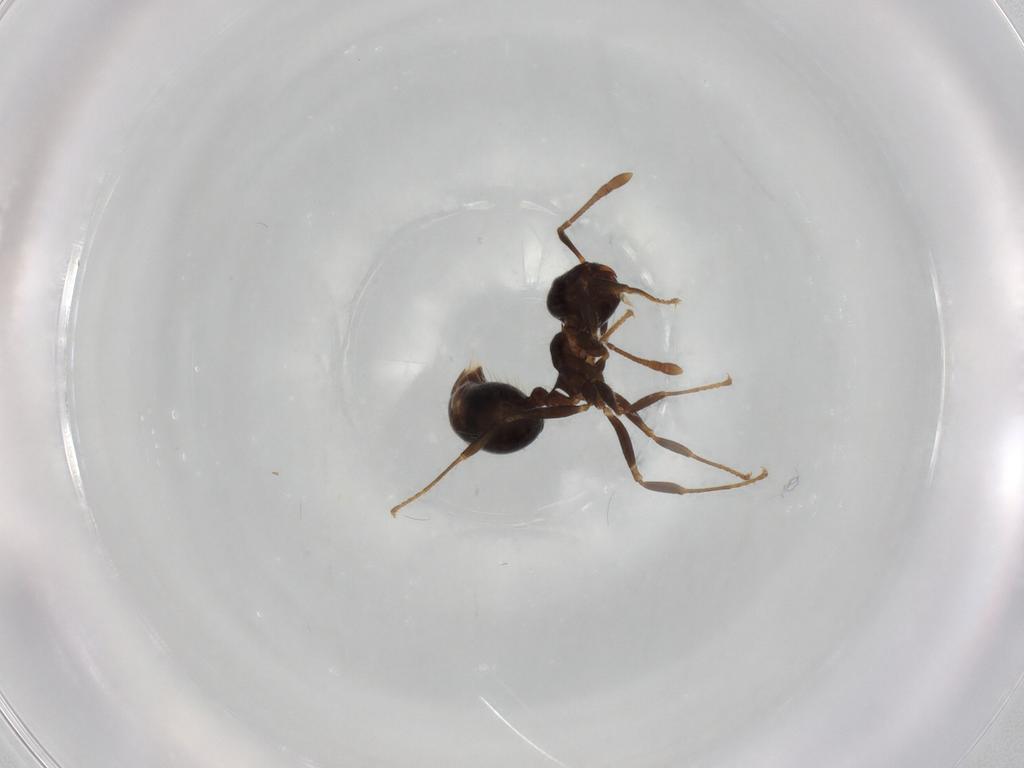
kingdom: Animalia
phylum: Arthropoda
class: Insecta
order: Hymenoptera
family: Formicidae
